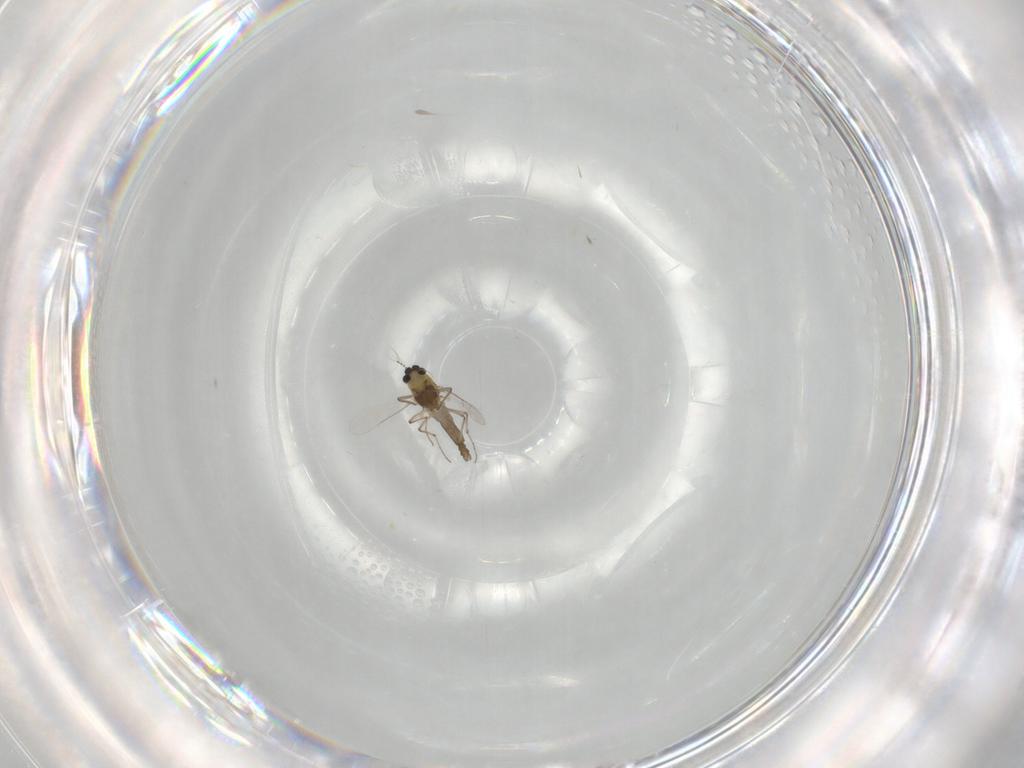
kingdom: Animalia
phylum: Arthropoda
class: Insecta
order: Diptera
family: Chironomidae
